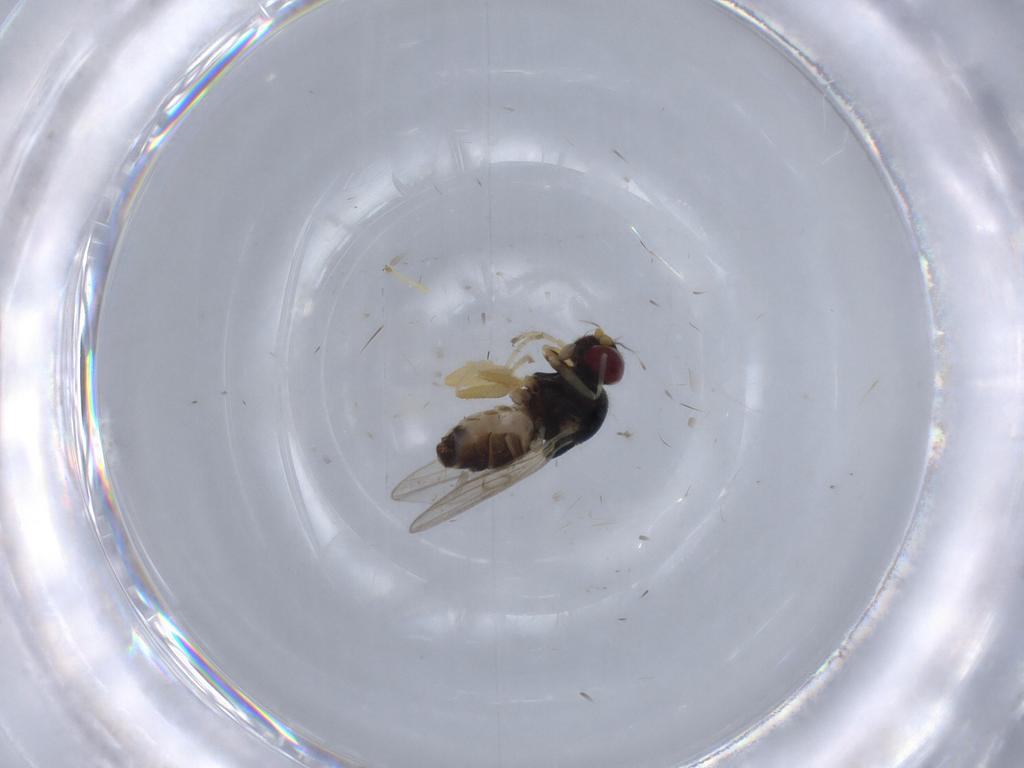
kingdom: Animalia
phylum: Arthropoda
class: Insecta
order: Diptera
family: Chloropidae
